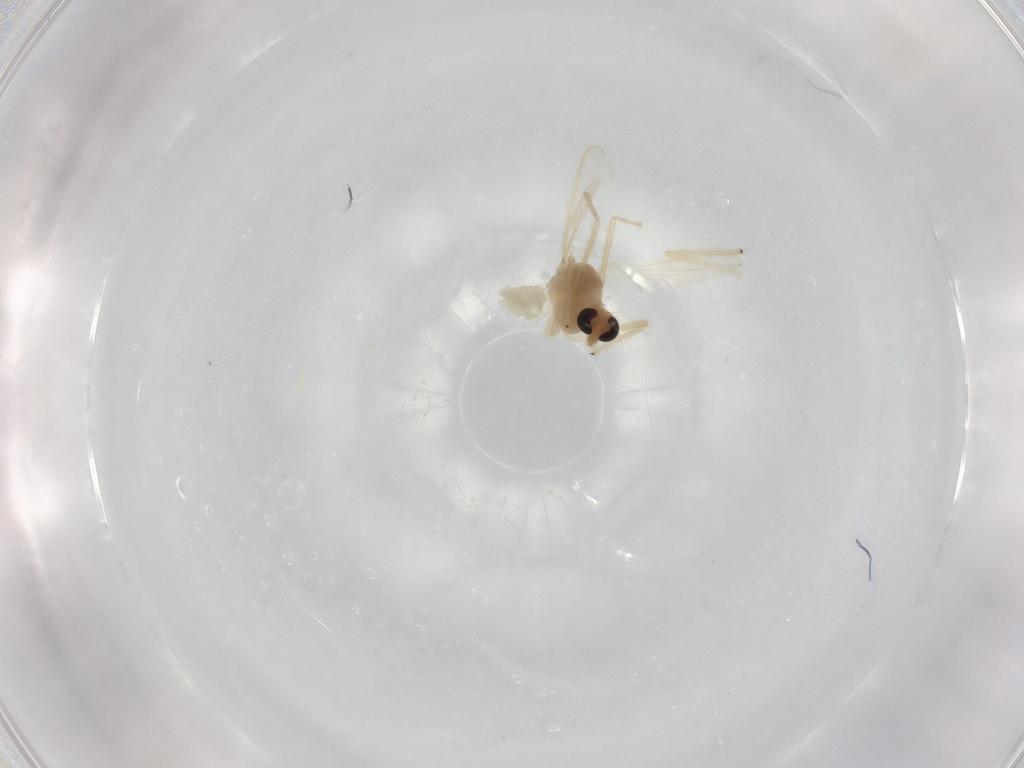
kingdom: Animalia
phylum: Arthropoda
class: Insecta
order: Diptera
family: Chironomidae
